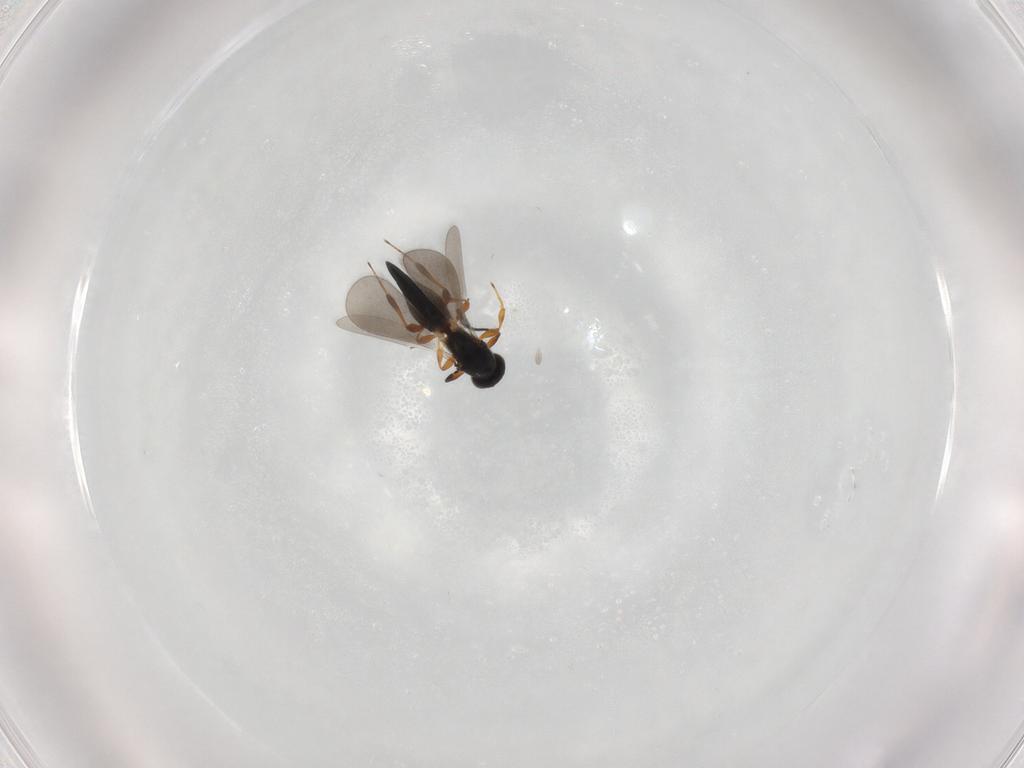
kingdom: Animalia
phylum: Arthropoda
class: Insecta
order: Hymenoptera
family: Platygastridae
